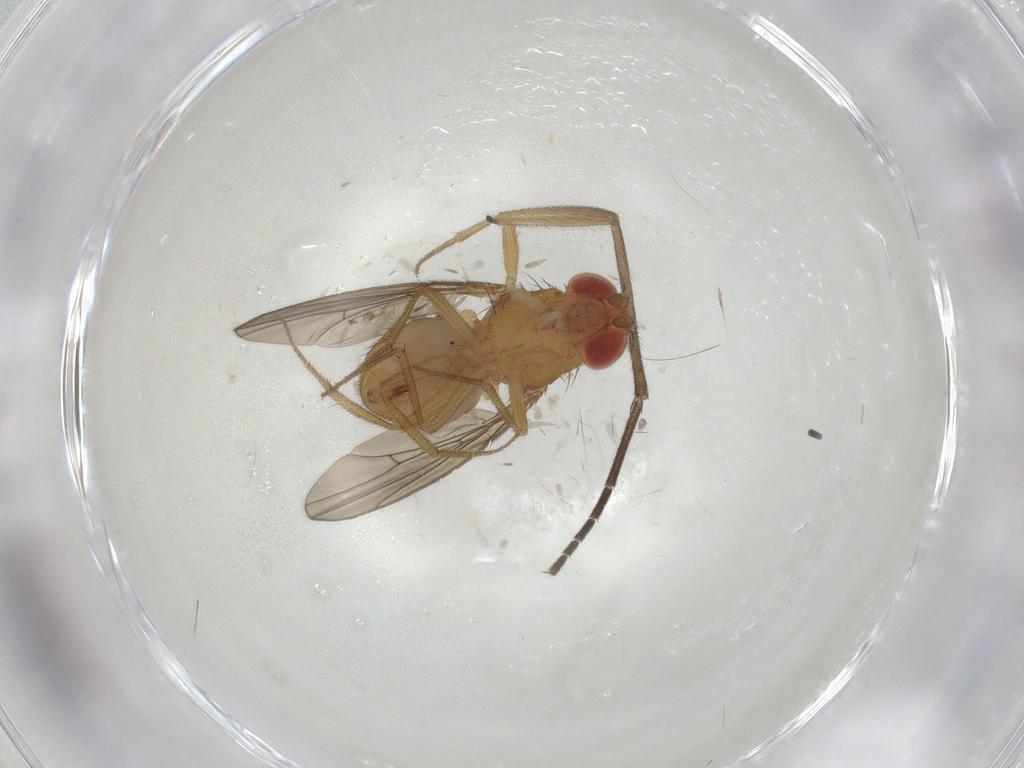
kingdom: Animalia
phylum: Arthropoda
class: Insecta
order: Diptera
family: Drosophilidae
